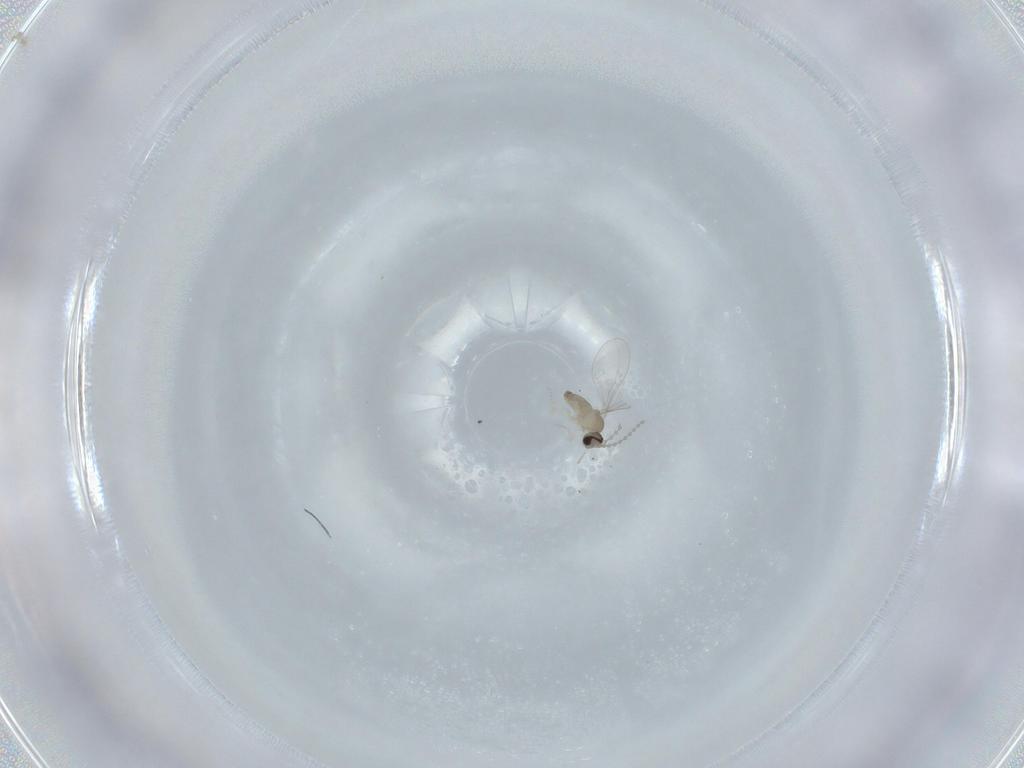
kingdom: Animalia
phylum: Arthropoda
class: Insecta
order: Diptera
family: Cecidomyiidae
